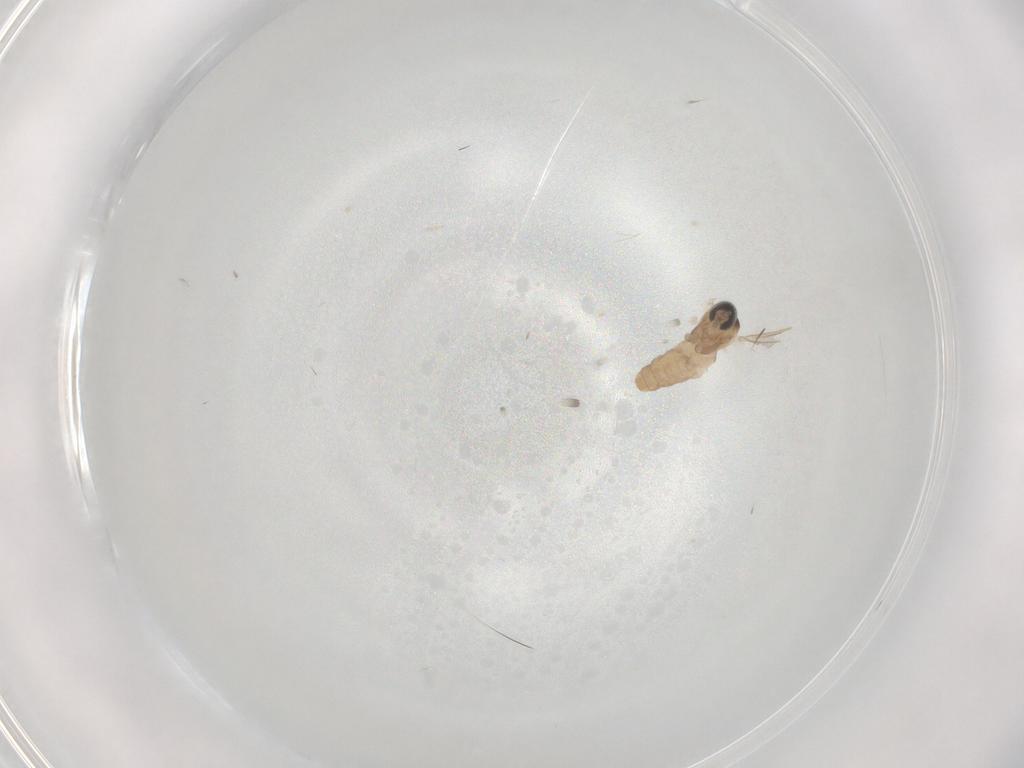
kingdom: Animalia
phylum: Arthropoda
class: Insecta
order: Diptera
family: Cecidomyiidae
